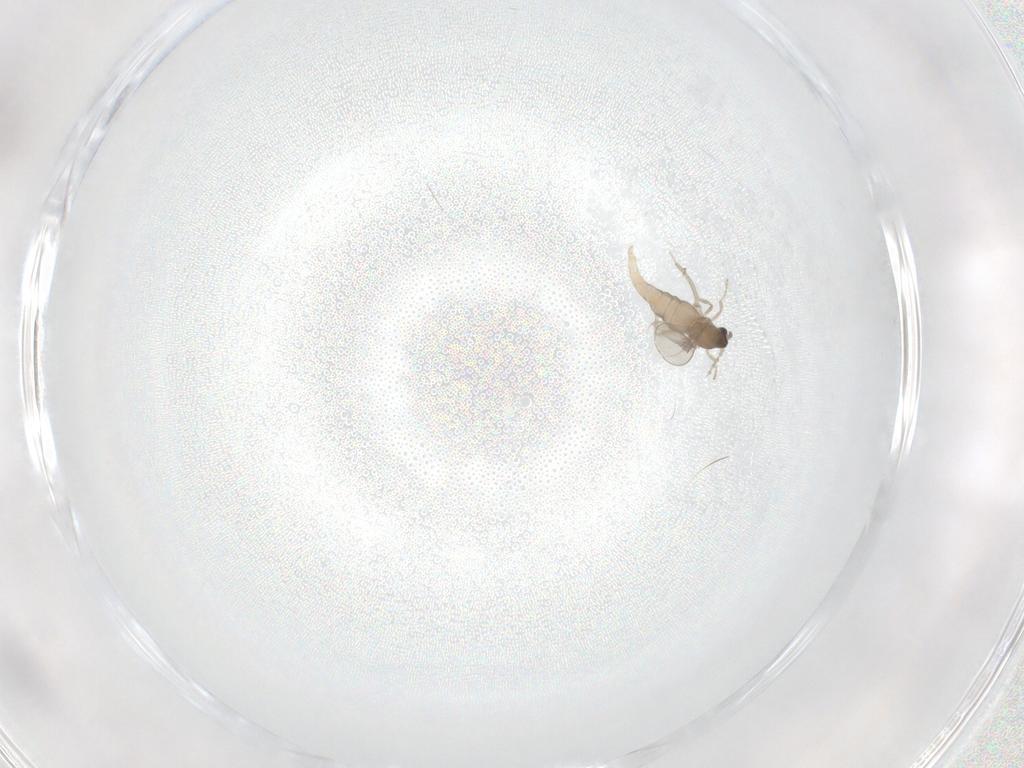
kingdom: Animalia
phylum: Arthropoda
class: Insecta
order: Diptera
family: Cecidomyiidae
